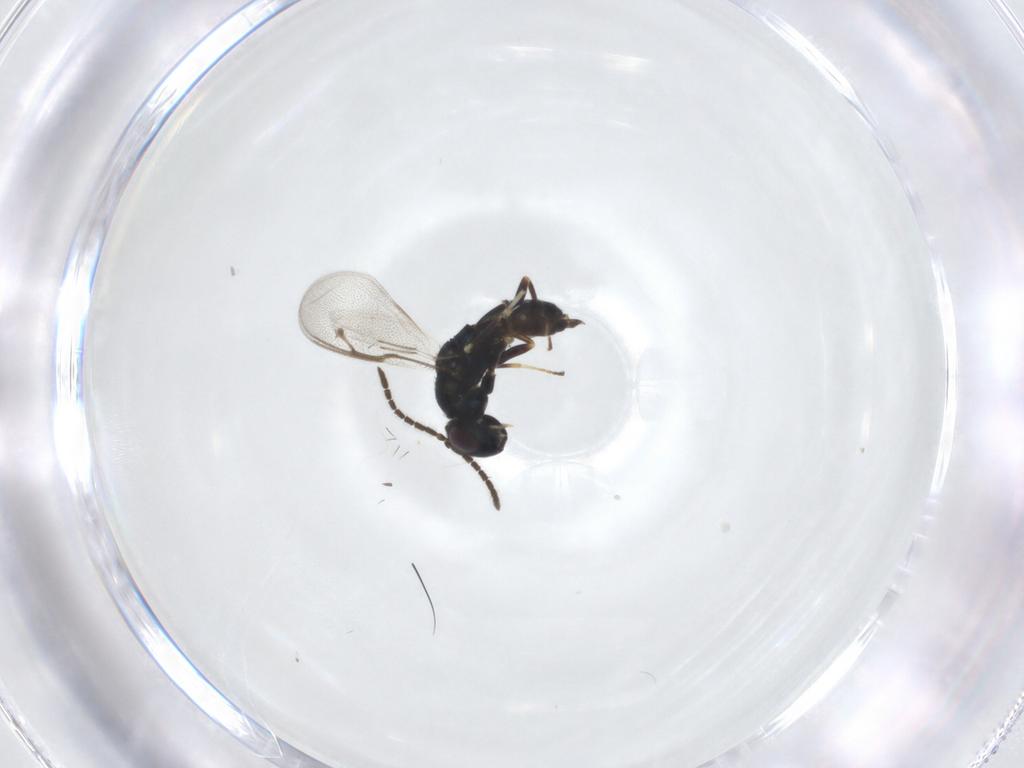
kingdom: Animalia
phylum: Arthropoda
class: Insecta
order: Hymenoptera
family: Pteromalidae
